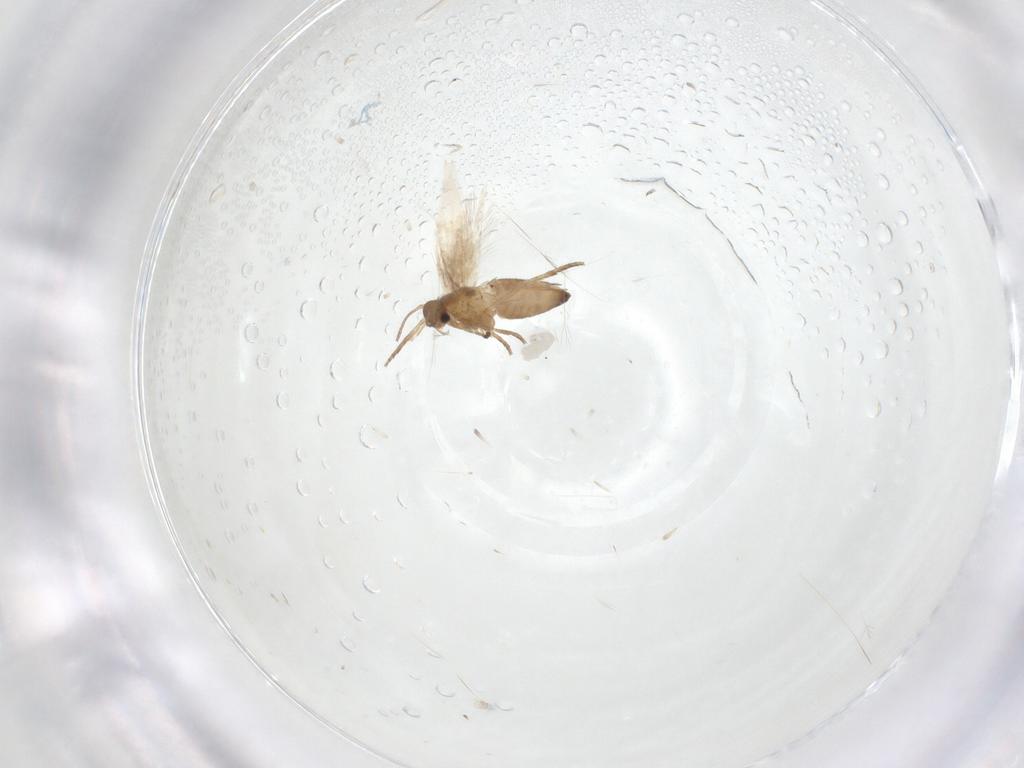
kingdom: Animalia
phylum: Arthropoda
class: Insecta
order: Lepidoptera
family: Heliozelidae
